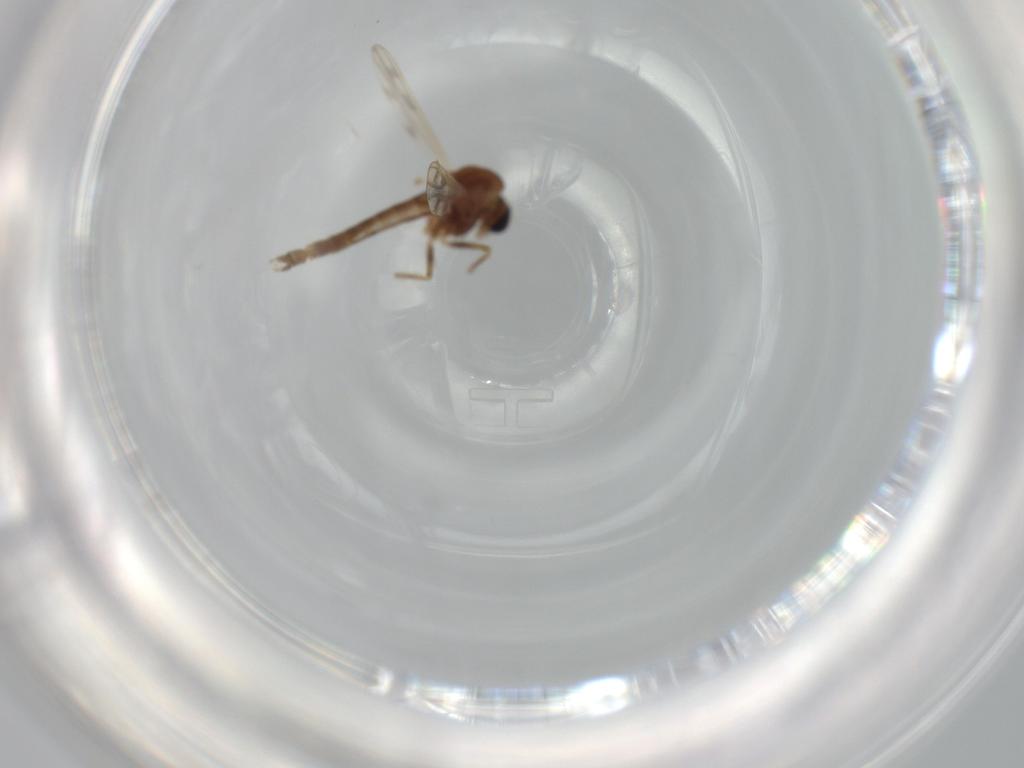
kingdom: Animalia
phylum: Arthropoda
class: Insecta
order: Diptera
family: Chironomidae
